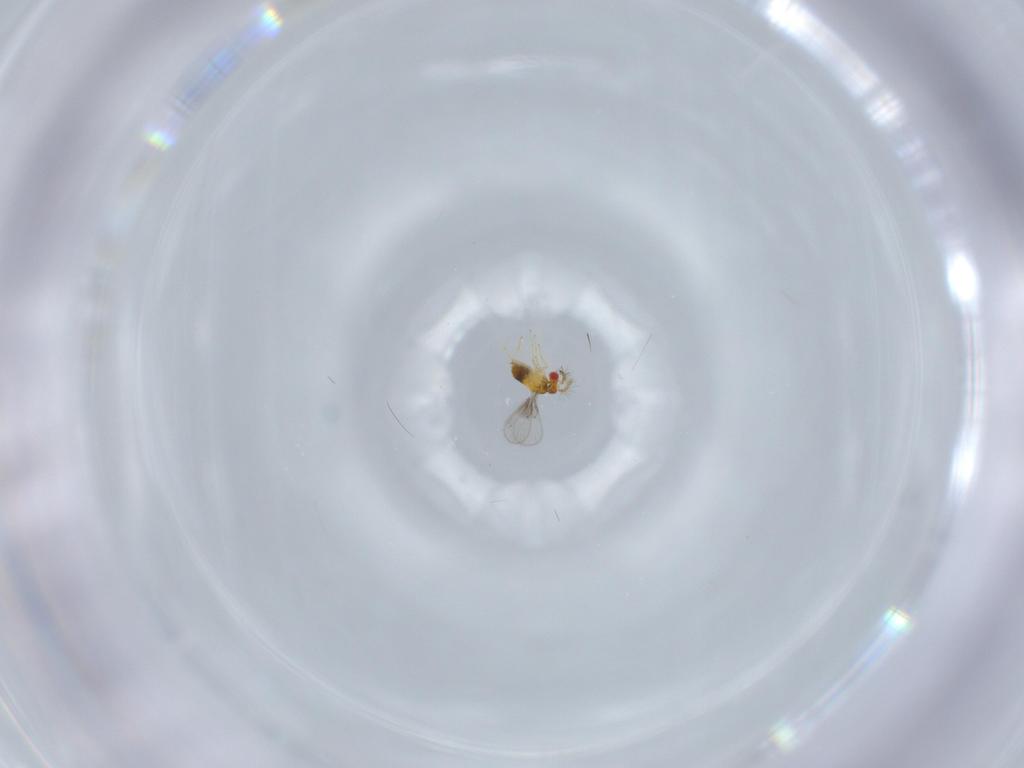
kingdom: Animalia
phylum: Arthropoda
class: Insecta
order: Hymenoptera
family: Trichogrammatidae
